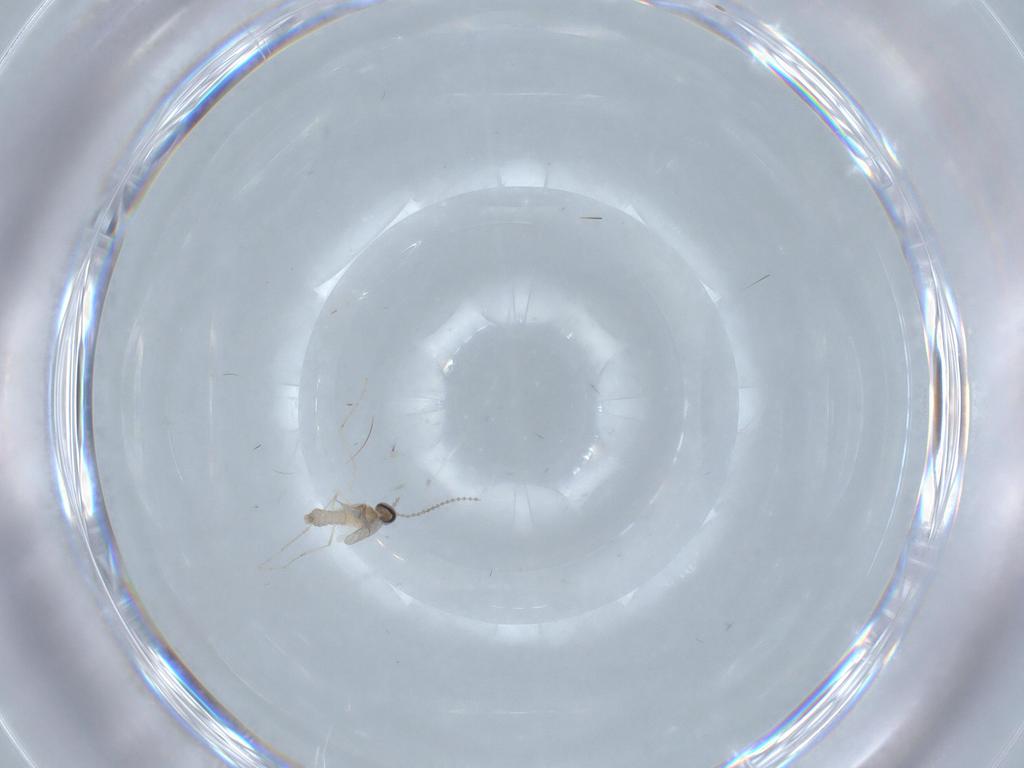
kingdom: Animalia
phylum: Arthropoda
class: Insecta
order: Diptera
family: Cecidomyiidae
